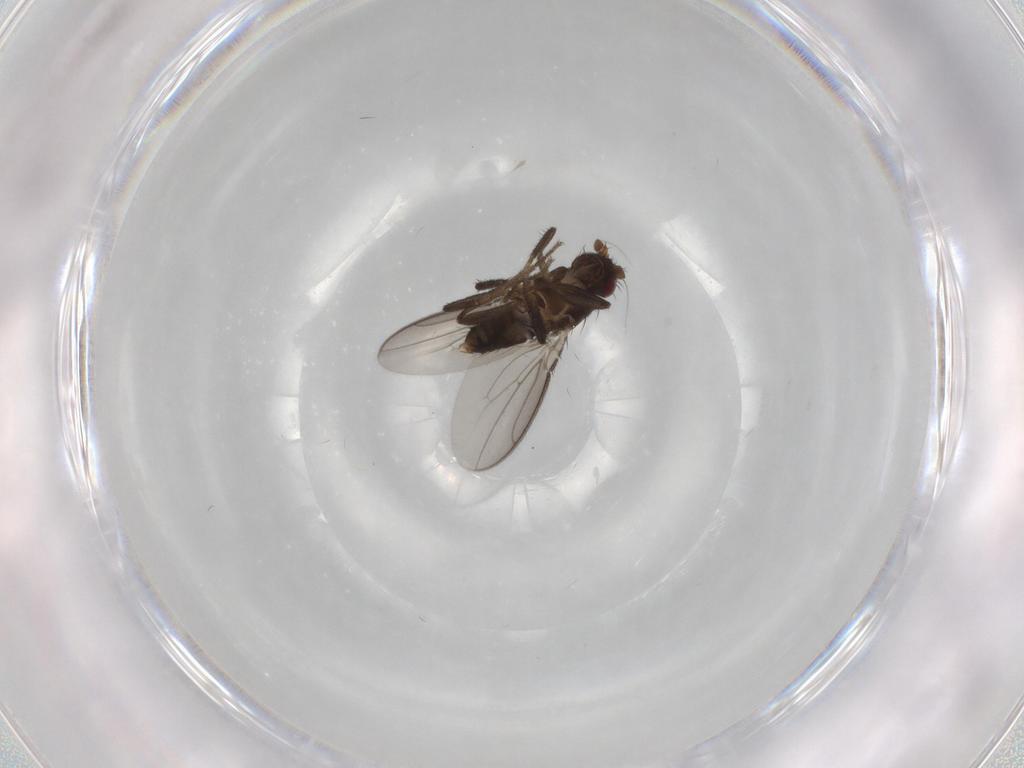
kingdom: Animalia
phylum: Arthropoda
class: Insecta
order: Diptera
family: Sphaeroceridae
